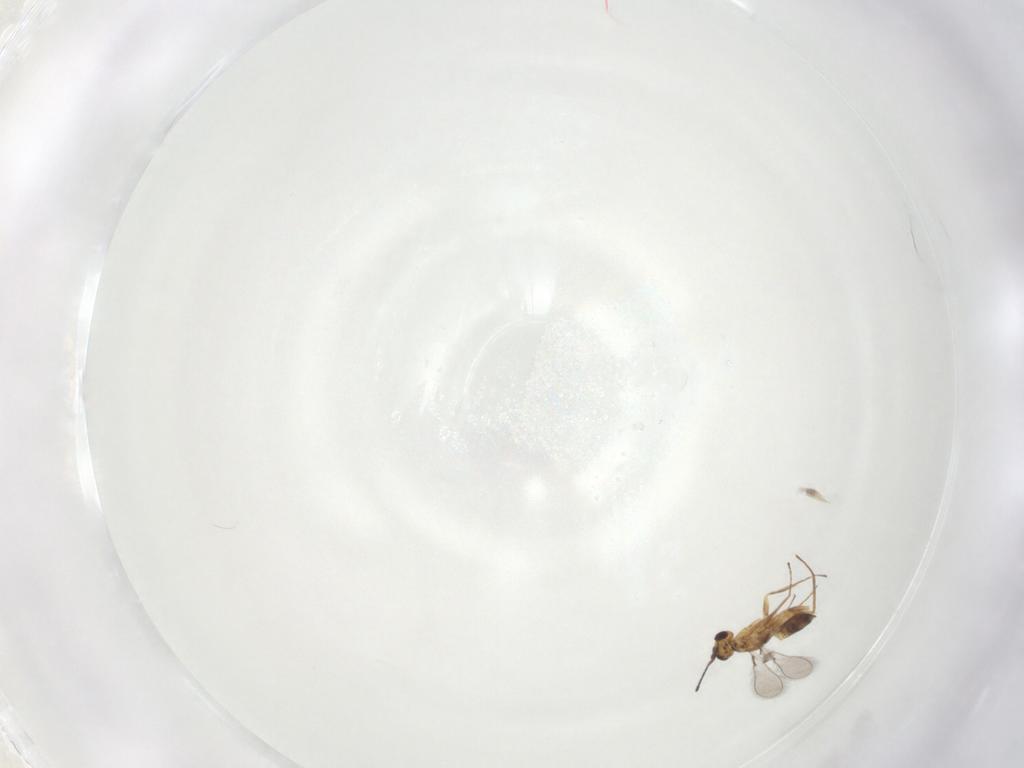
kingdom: Animalia
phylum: Arthropoda
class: Insecta
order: Hymenoptera
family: Mymaridae
